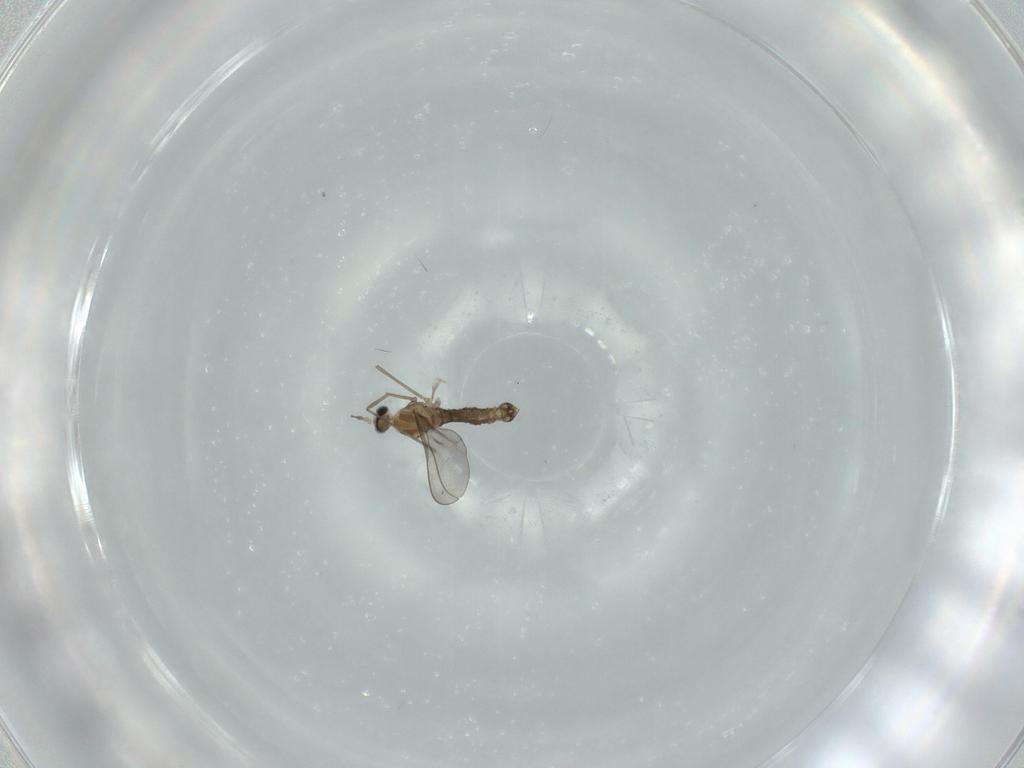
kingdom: Animalia
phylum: Arthropoda
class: Insecta
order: Diptera
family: Cecidomyiidae
